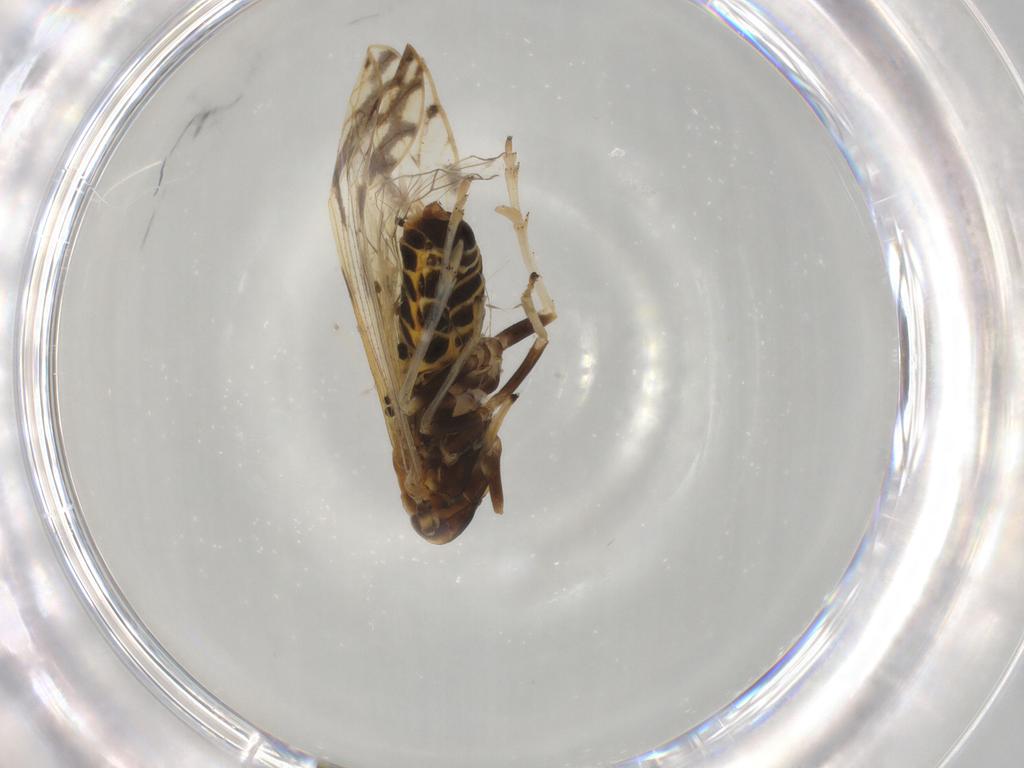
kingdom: Animalia
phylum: Arthropoda
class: Insecta
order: Hemiptera
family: Delphacidae
